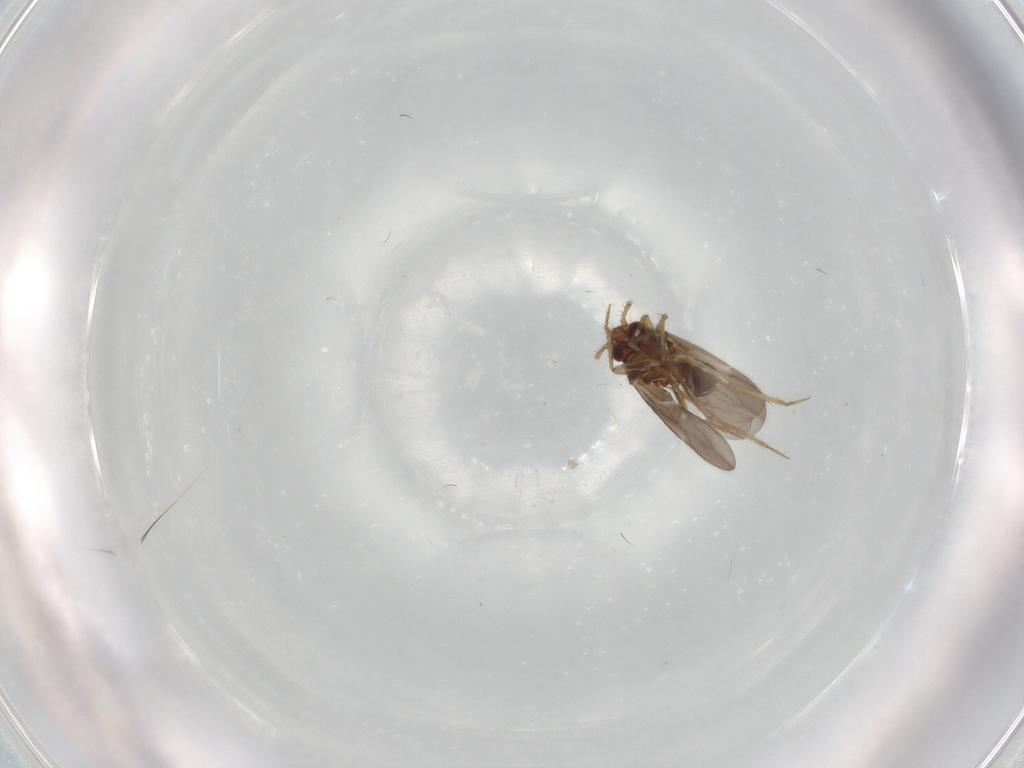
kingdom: Animalia
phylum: Arthropoda
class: Insecta
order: Hemiptera
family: Ceratocombidae
